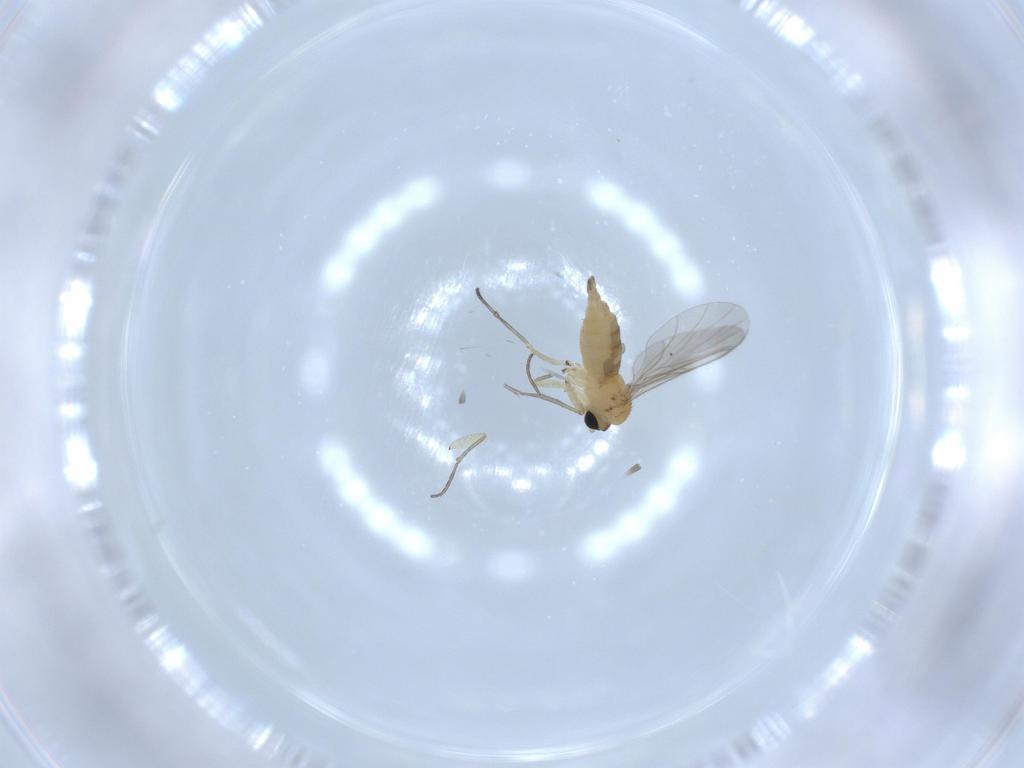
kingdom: Animalia
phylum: Arthropoda
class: Insecta
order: Diptera
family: Sciaridae
